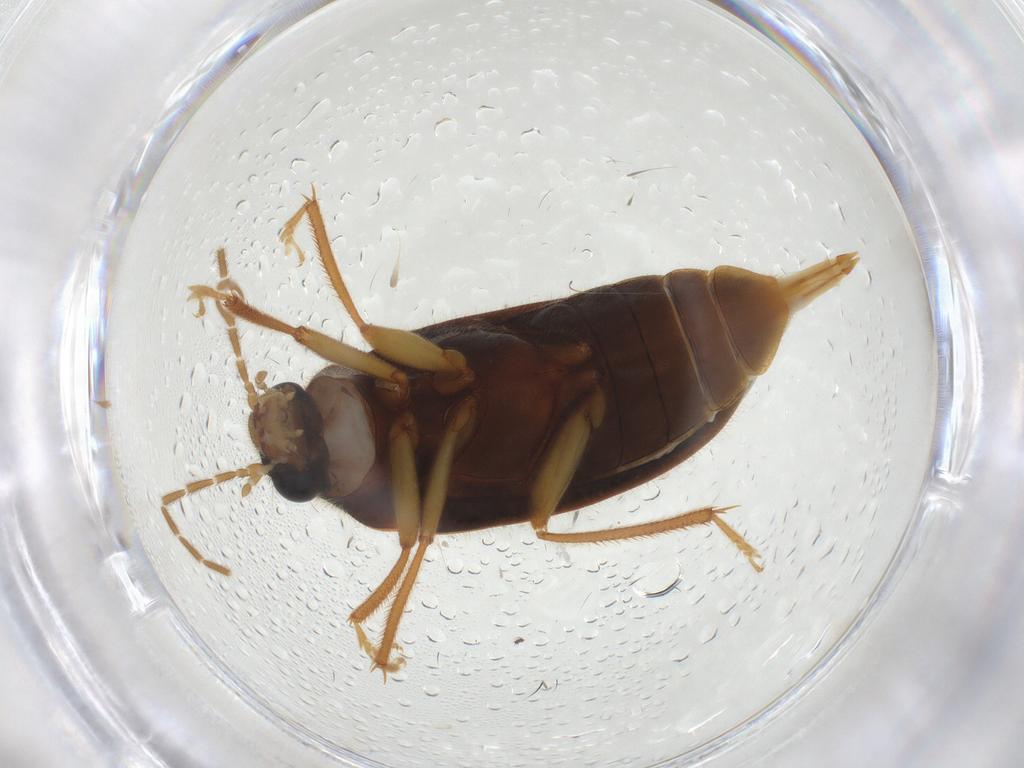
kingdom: Animalia
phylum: Arthropoda
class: Insecta
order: Coleoptera
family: Ptilodactylidae
